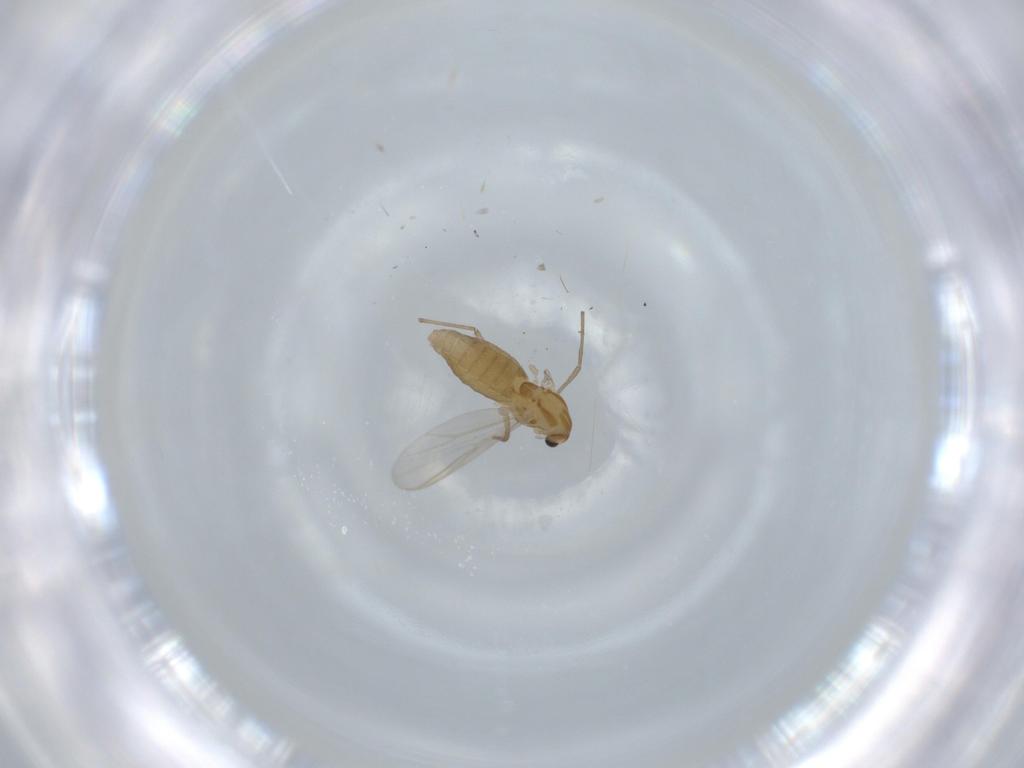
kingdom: Animalia
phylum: Arthropoda
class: Insecta
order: Diptera
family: Chironomidae
